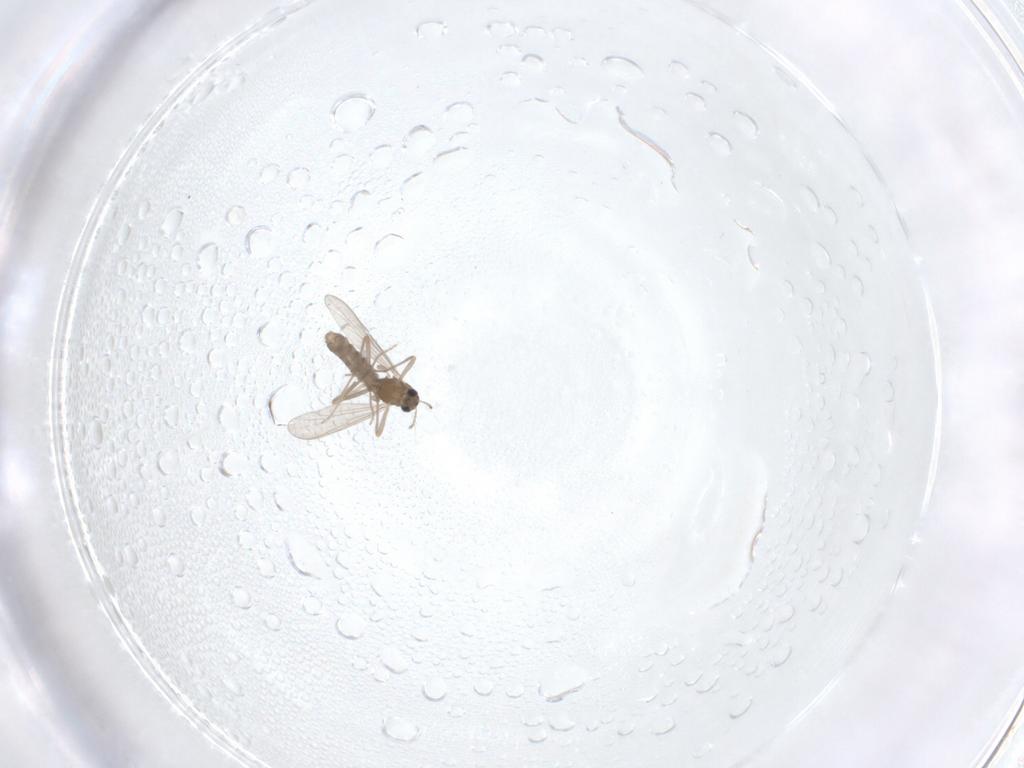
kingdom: Animalia
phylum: Arthropoda
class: Insecta
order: Diptera
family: Chironomidae
